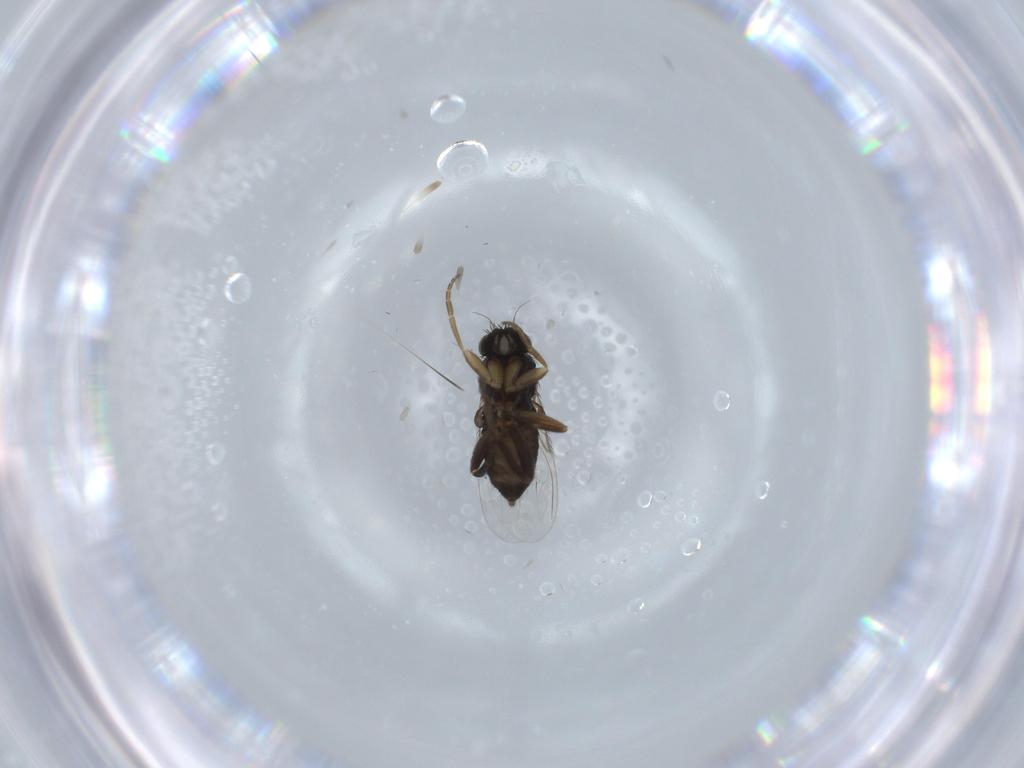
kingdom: Animalia
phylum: Arthropoda
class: Insecta
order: Diptera
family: Phoridae
